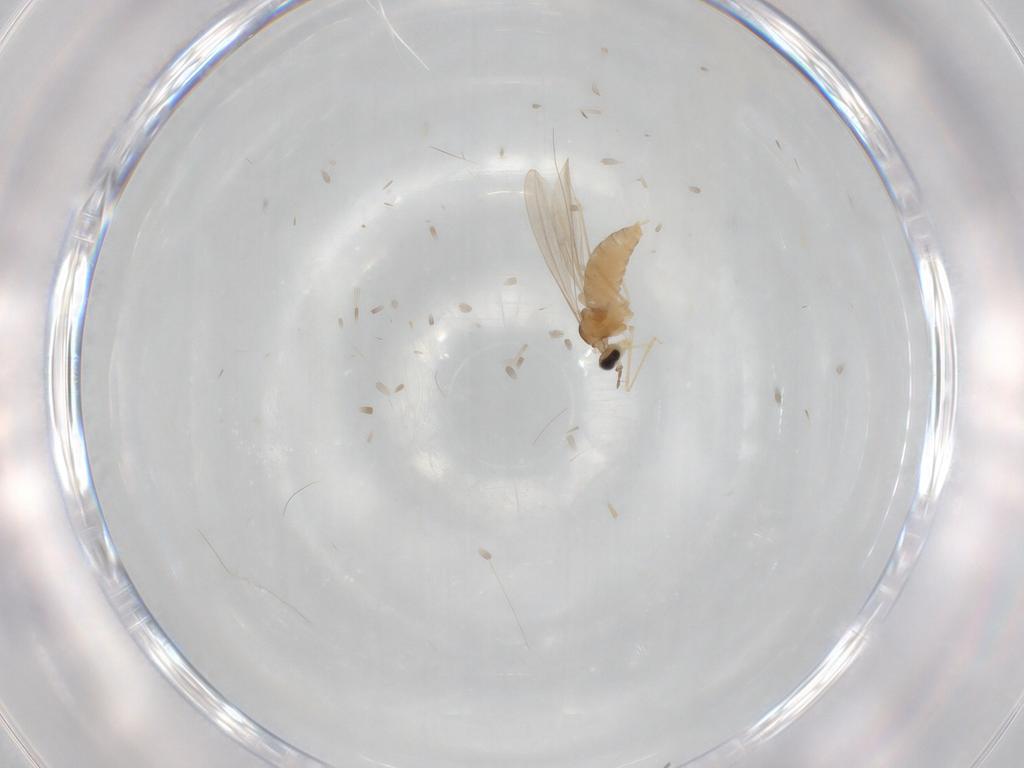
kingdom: Animalia
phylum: Arthropoda
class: Insecta
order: Diptera
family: Cecidomyiidae
